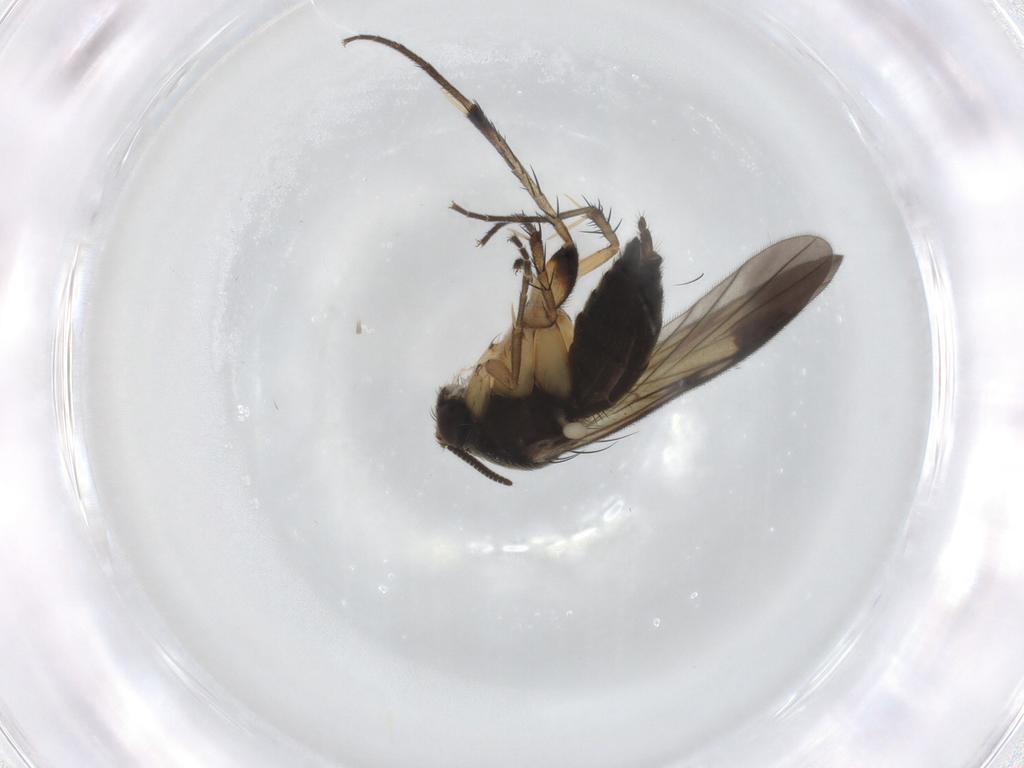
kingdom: Animalia
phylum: Arthropoda
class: Insecta
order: Diptera
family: Mycetophilidae
